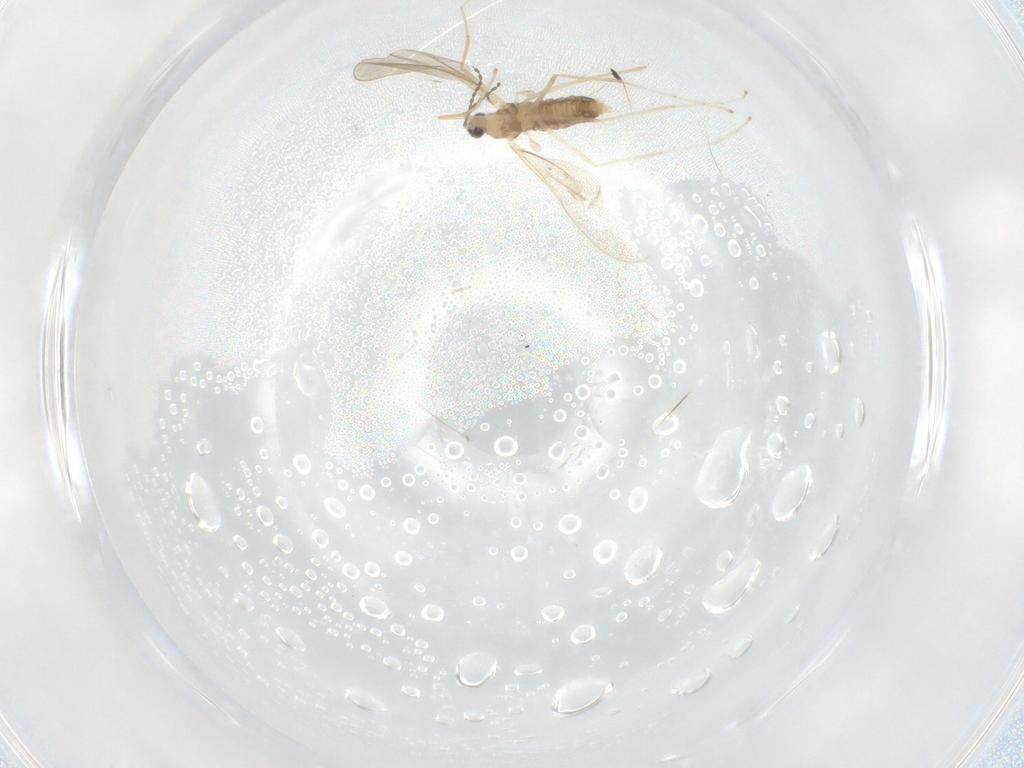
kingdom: Animalia
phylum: Arthropoda
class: Insecta
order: Diptera
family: Cecidomyiidae
